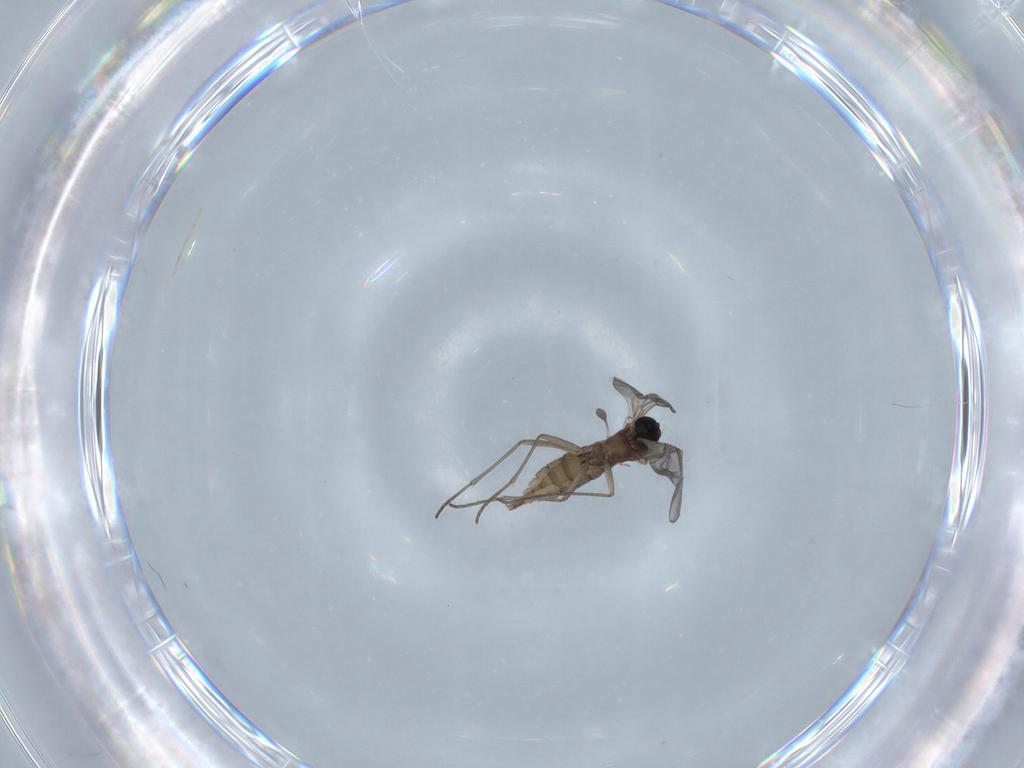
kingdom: Animalia
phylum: Arthropoda
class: Insecta
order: Diptera
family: Sciaridae
